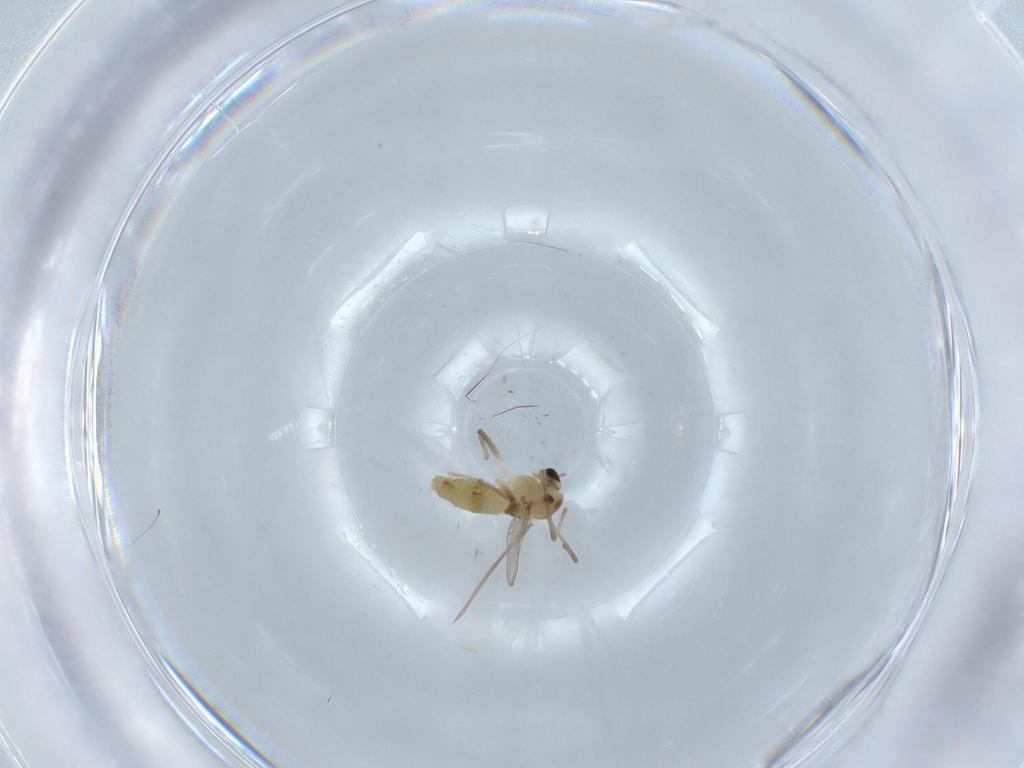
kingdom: Animalia
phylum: Arthropoda
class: Insecta
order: Diptera
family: Chironomidae
